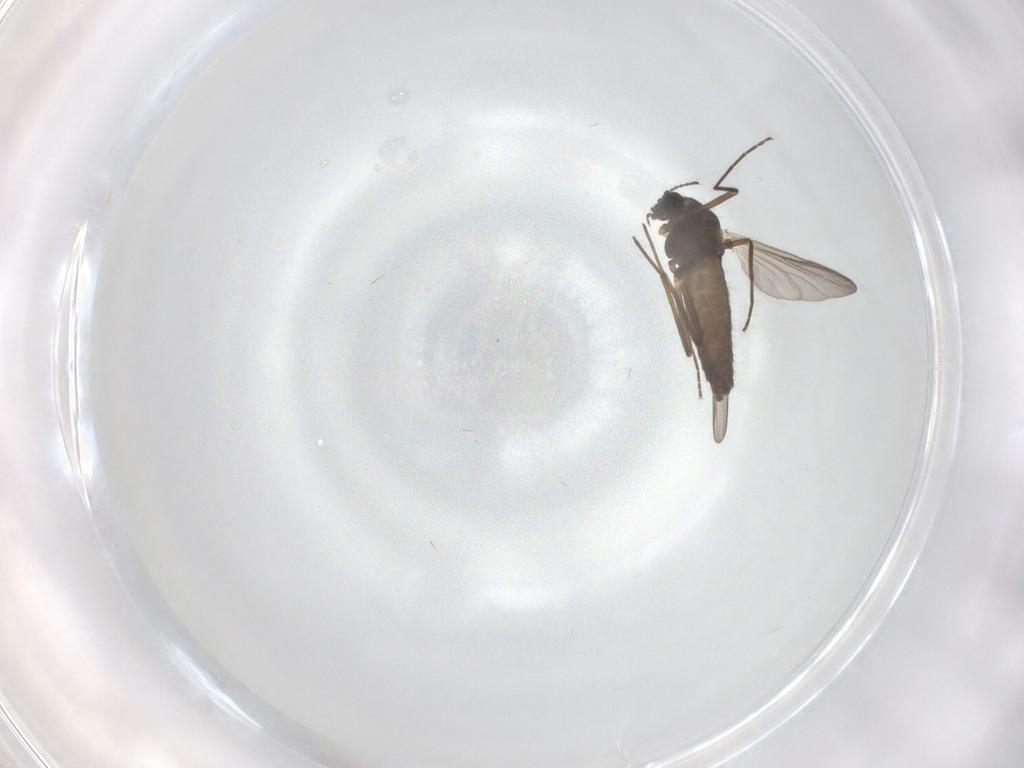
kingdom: Animalia
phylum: Arthropoda
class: Insecta
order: Diptera
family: Chironomidae
